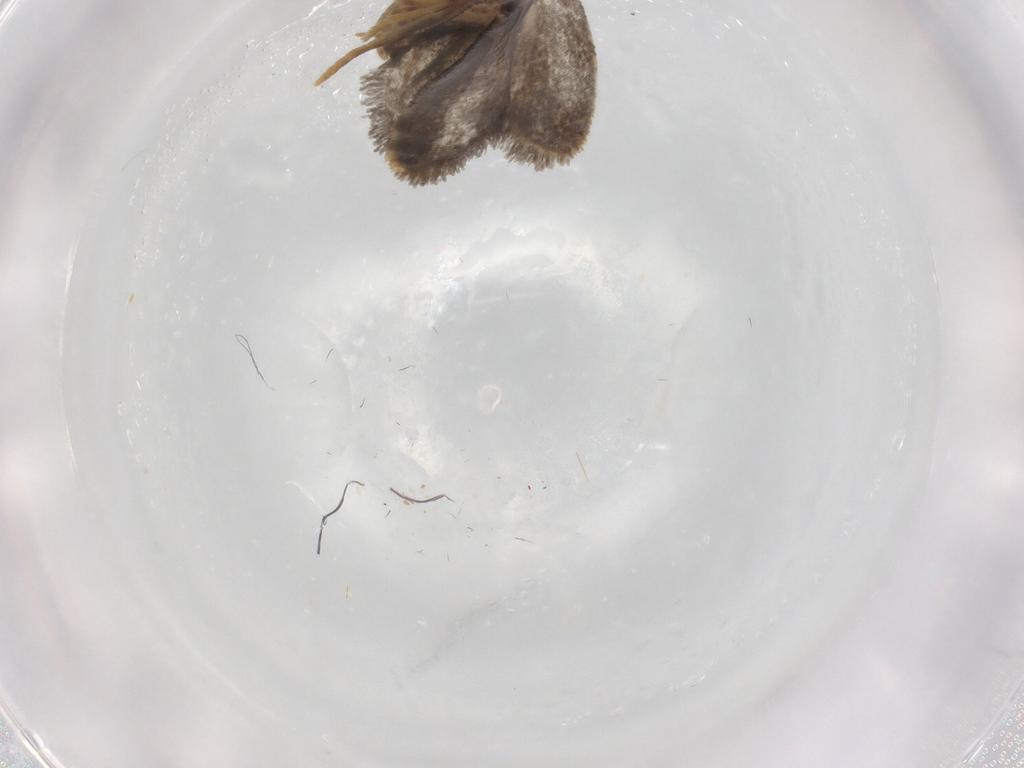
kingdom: Animalia
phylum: Arthropoda
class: Insecta
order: Lepidoptera
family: Psychidae
